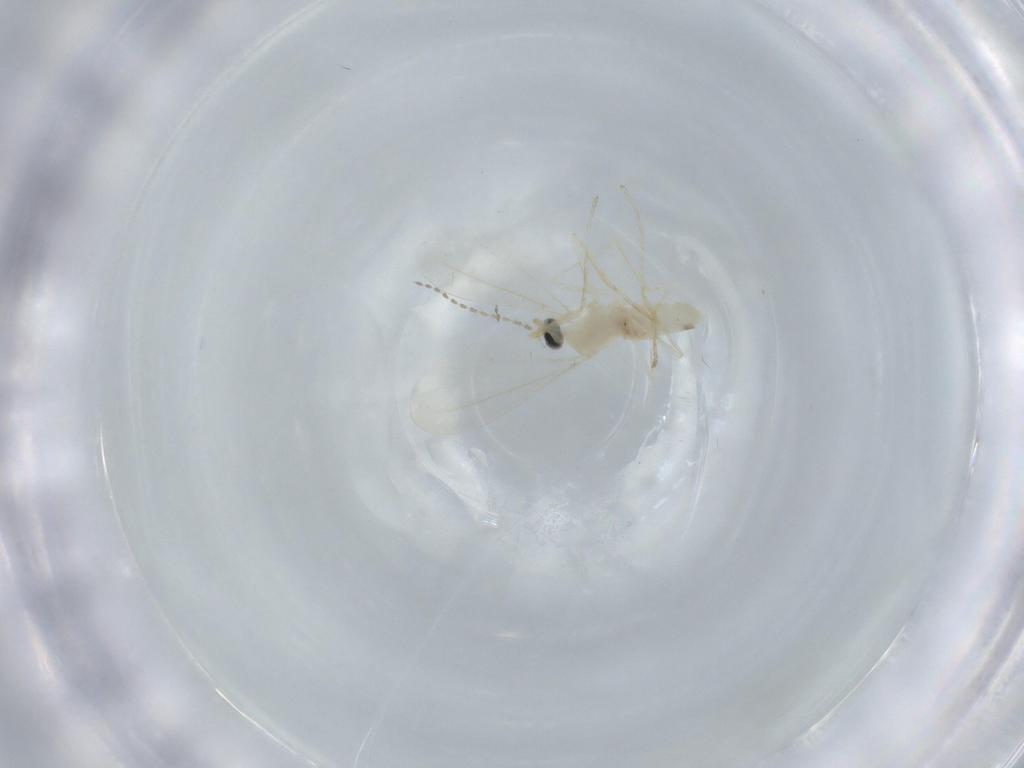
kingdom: Animalia
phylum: Arthropoda
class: Insecta
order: Diptera
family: Cecidomyiidae
